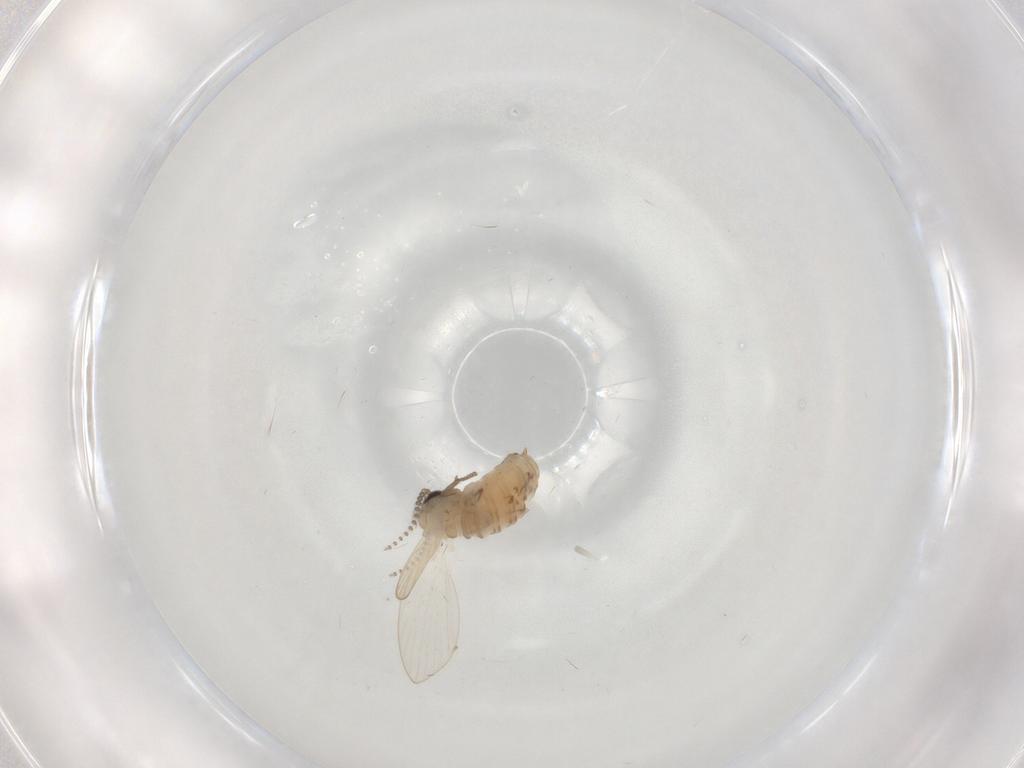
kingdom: Animalia
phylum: Arthropoda
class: Insecta
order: Diptera
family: Psychodidae
